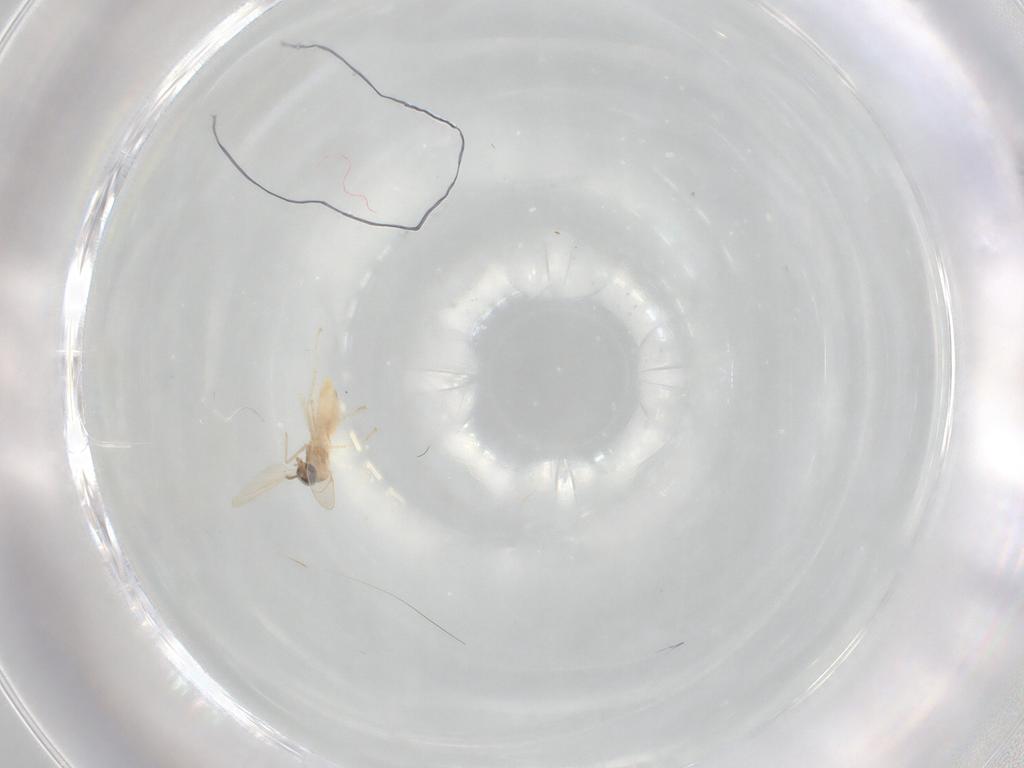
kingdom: Animalia
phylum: Arthropoda
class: Insecta
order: Diptera
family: Cecidomyiidae
